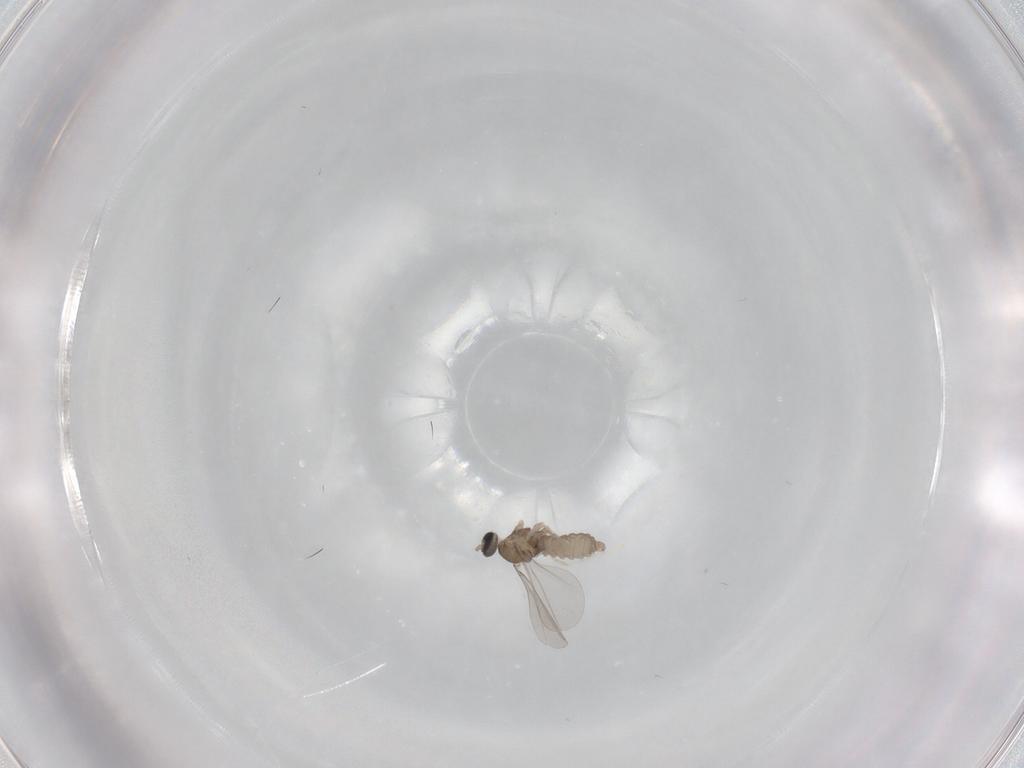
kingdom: Animalia
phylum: Arthropoda
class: Insecta
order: Diptera
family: Cecidomyiidae
